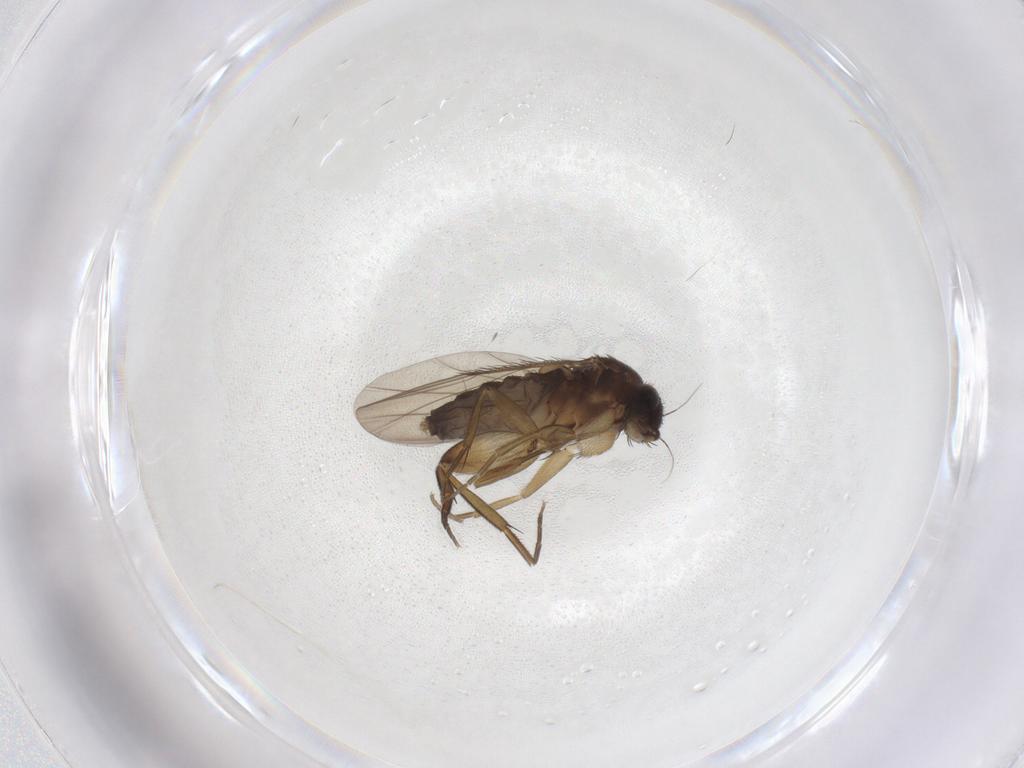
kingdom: Animalia
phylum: Arthropoda
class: Insecta
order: Diptera
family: Phoridae
